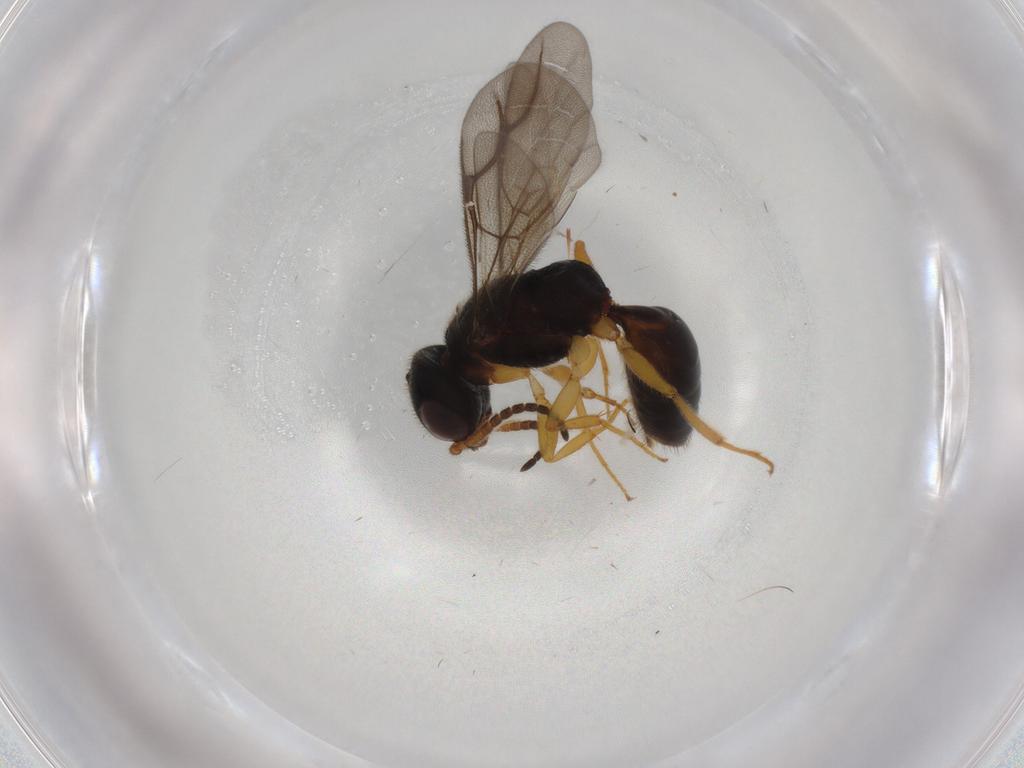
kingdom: Animalia
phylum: Arthropoda
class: Insecta
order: Hymenoptera
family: Bethylidae
